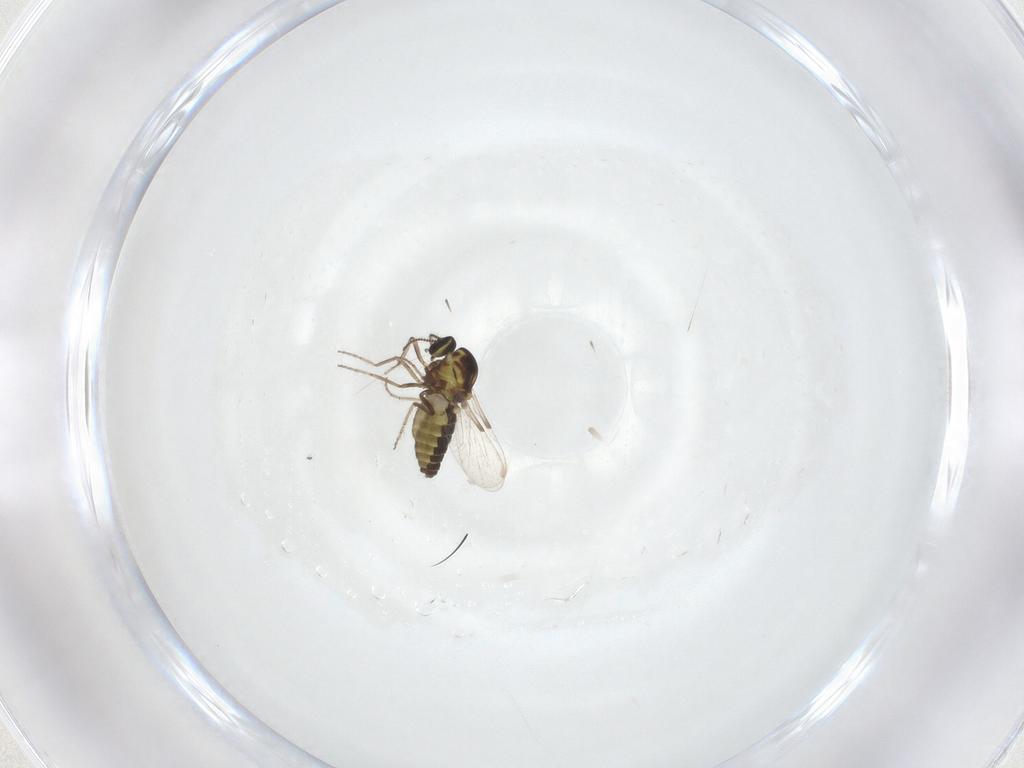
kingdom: Animalia
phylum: Arthropoda
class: Insecta
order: Diptera
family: Ceratopogonidae
